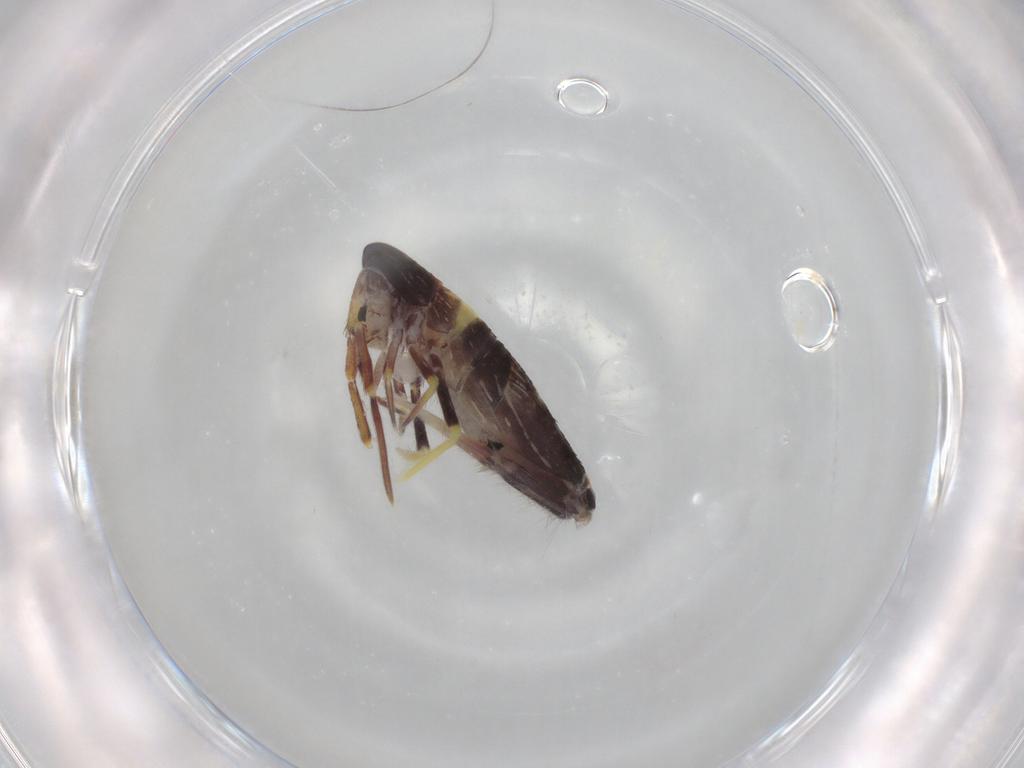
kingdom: Animalia
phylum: Arthropoda
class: Collembola
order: Entomobryomorpha
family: Entomobryidae
